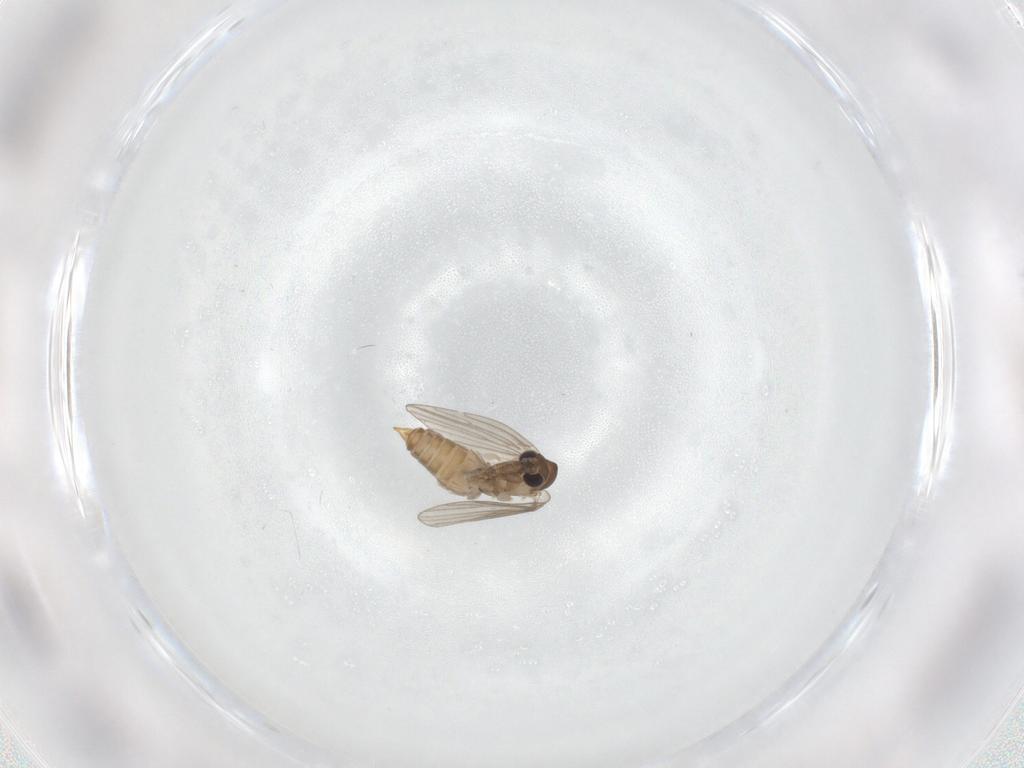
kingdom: Animalia
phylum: Arthropoda
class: Insecta
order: Diptera
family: Psychodidae
